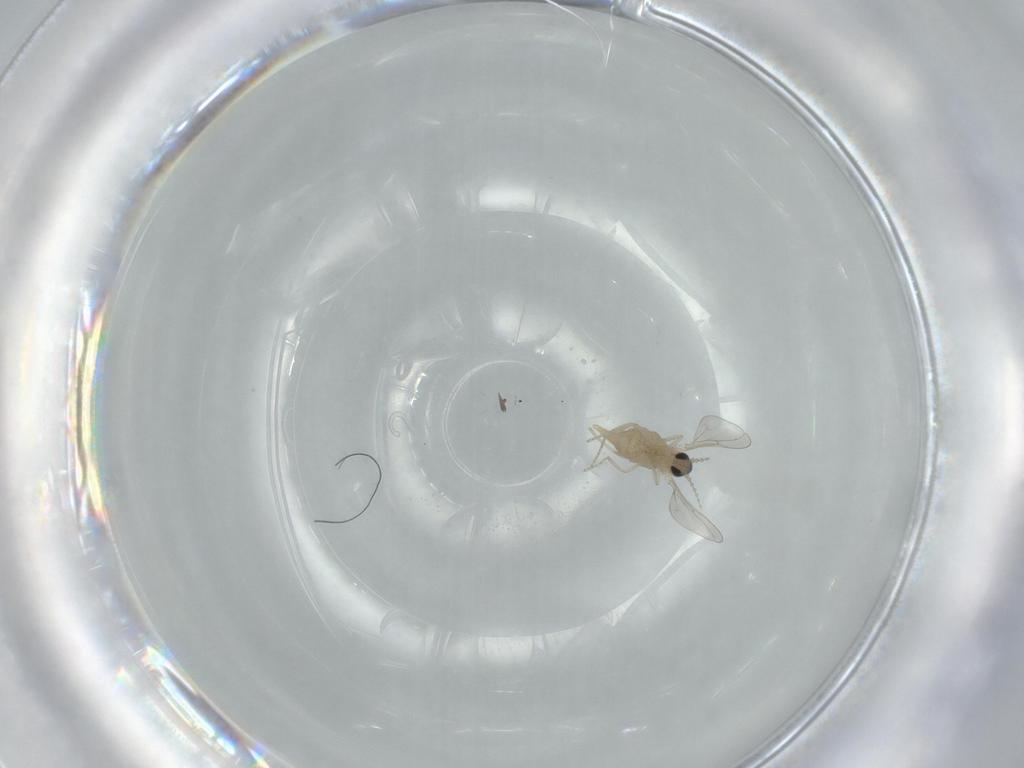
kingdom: Animalia
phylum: Arthropoda
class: Insecta
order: Diptera
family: Cecidomyiidae
